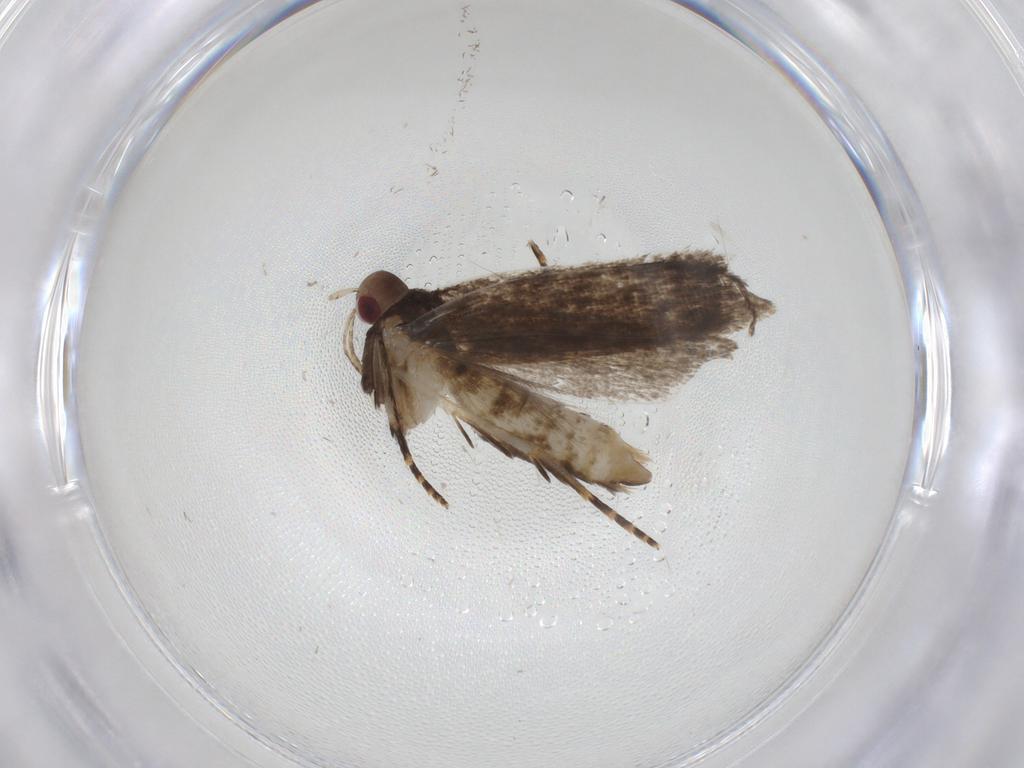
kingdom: Animalia
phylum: Arthropoda
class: Insecta
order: Lepidoptera
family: Gelechiidae
